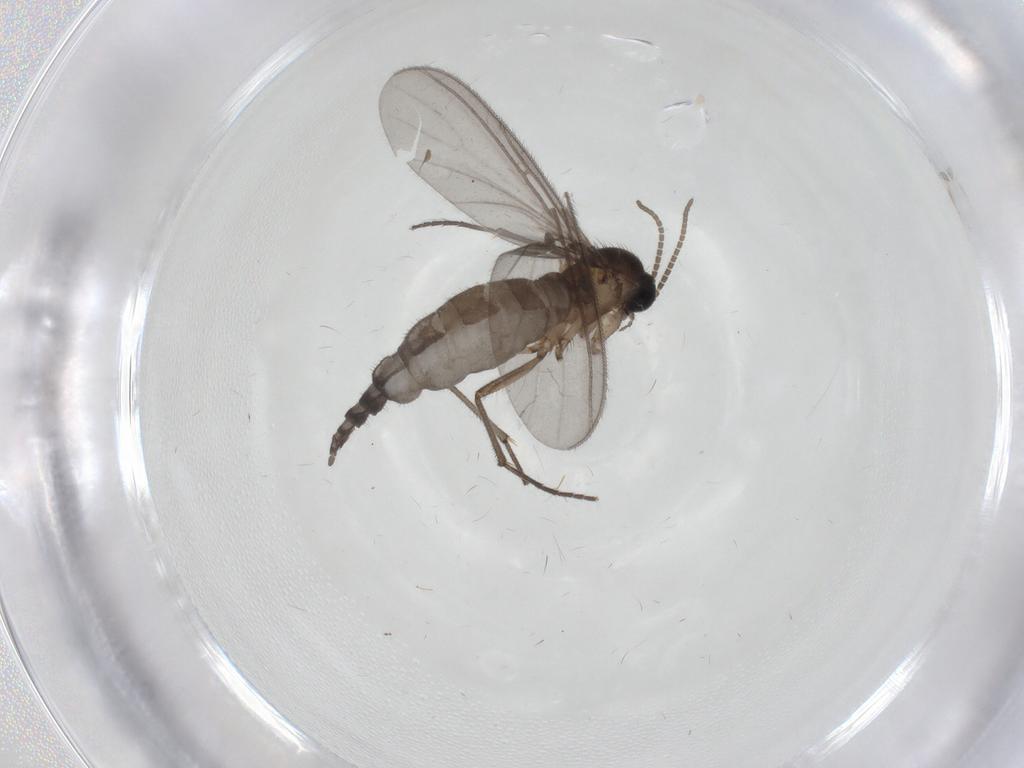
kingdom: Animalia
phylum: Arthropoda
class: Insecta
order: Diptera
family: Chironomidae
